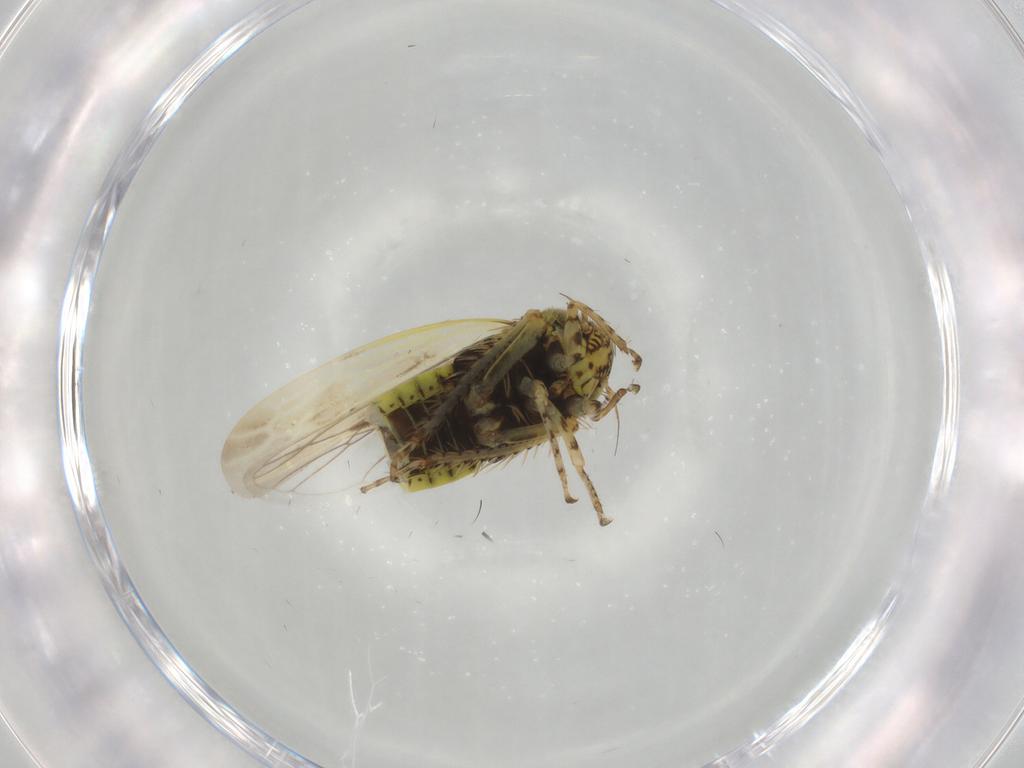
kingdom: Animalia
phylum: Arthropoda
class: Insecta
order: Hemiptera
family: Cicadellidae
